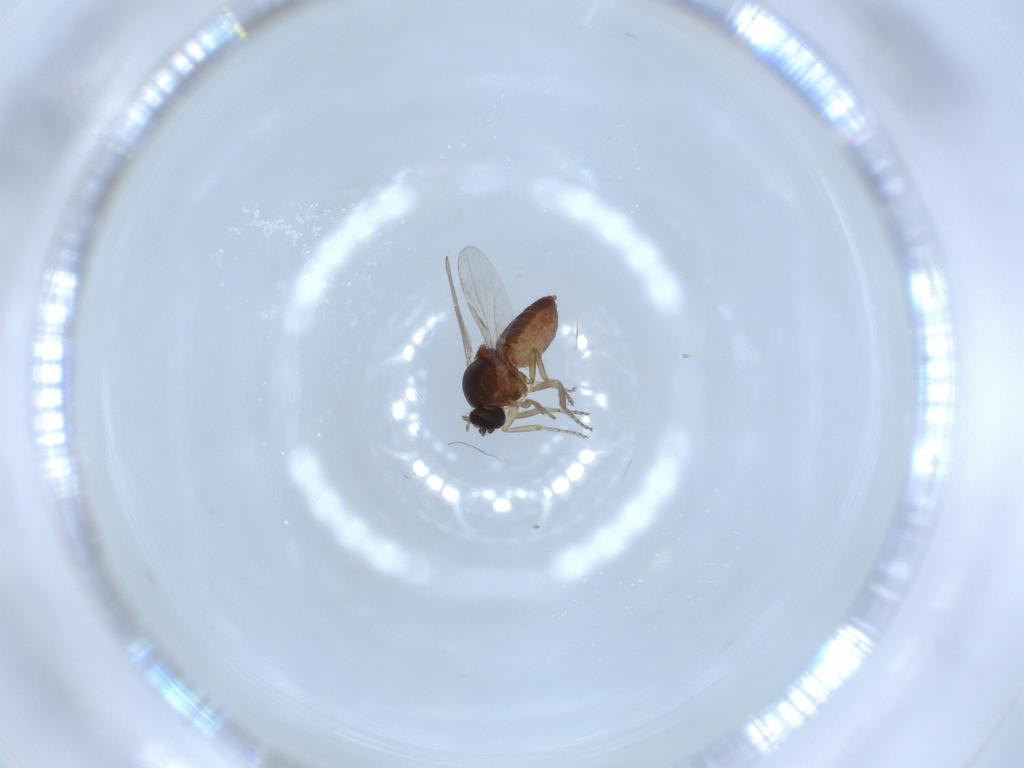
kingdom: Animalia
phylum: Arthropoda
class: Insecta
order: Diptera
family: Ceratopogonidae
